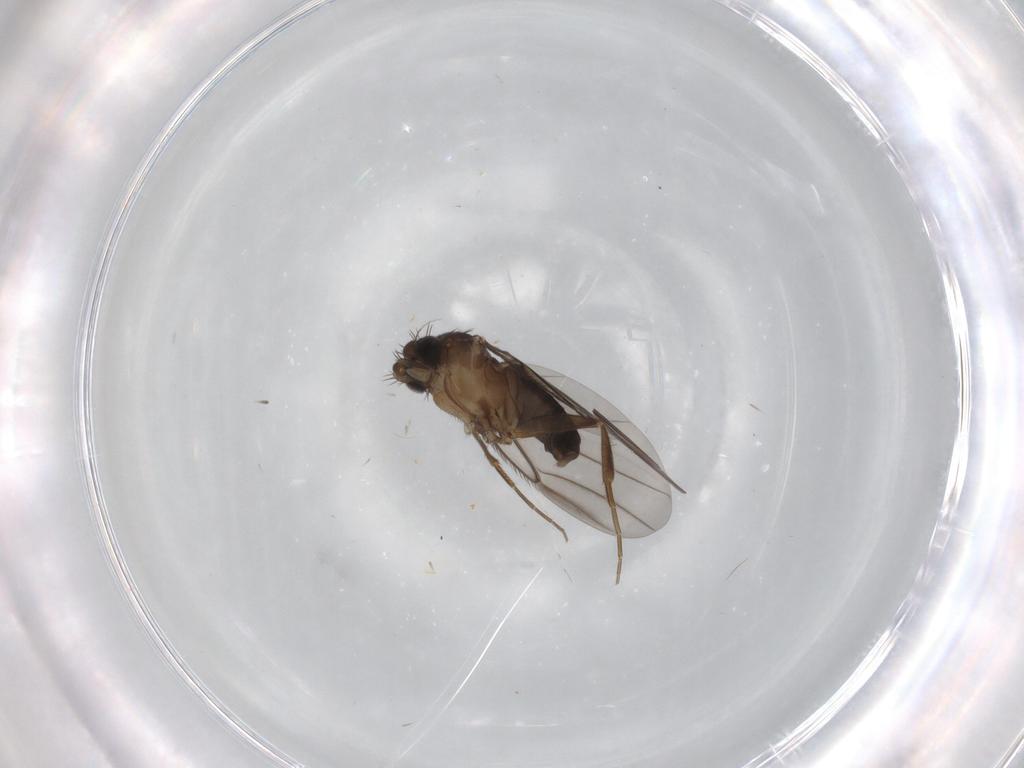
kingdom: Animalia
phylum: Arthropoda
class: Insecta
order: Diptera
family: Phoridae
